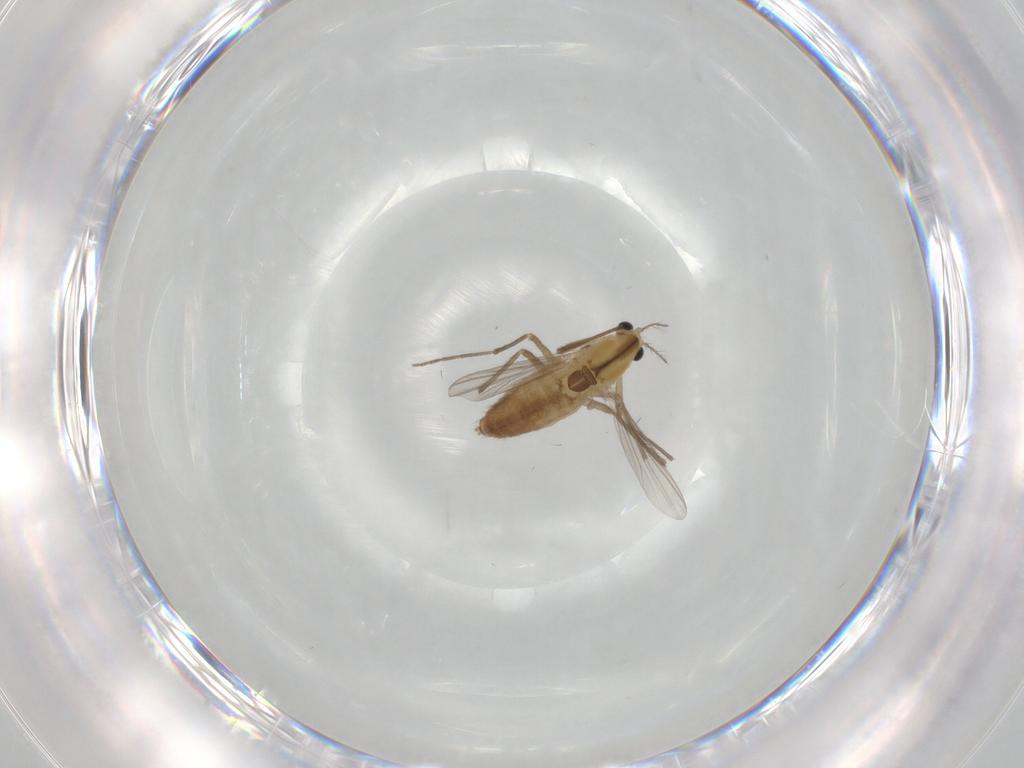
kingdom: Animalia
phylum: Arthropoda
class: Insecta
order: Diptera
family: Chironomidae
